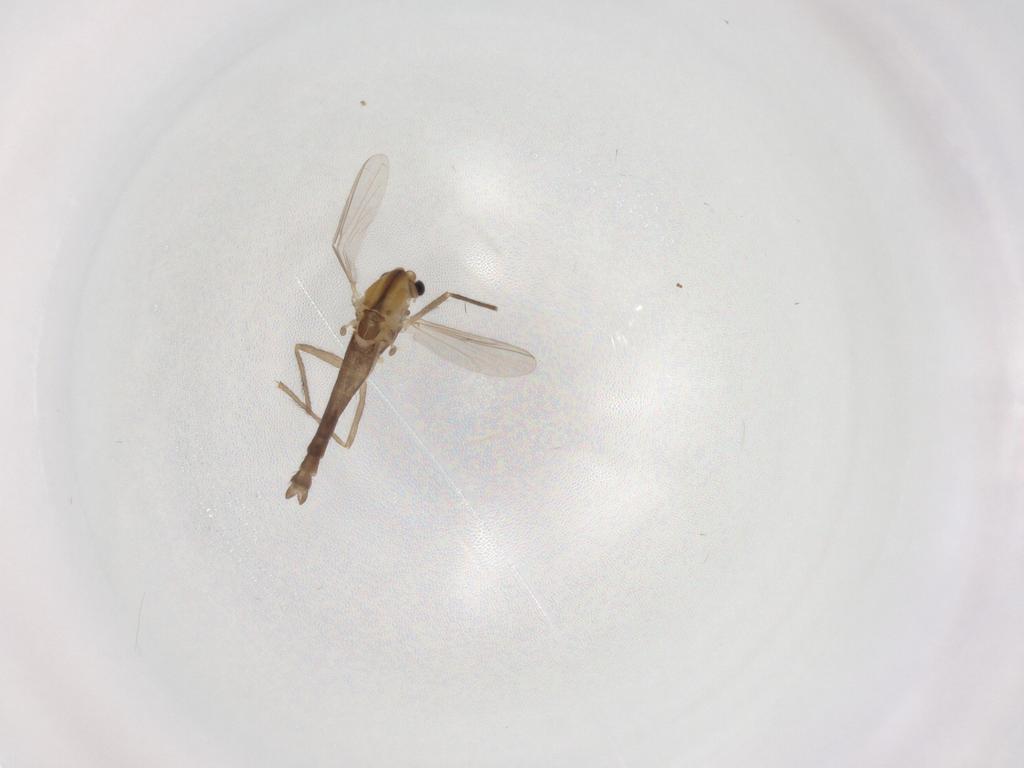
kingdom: Animalia
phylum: Arthropoda
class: Insecta
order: Diptera
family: Chironomidae
